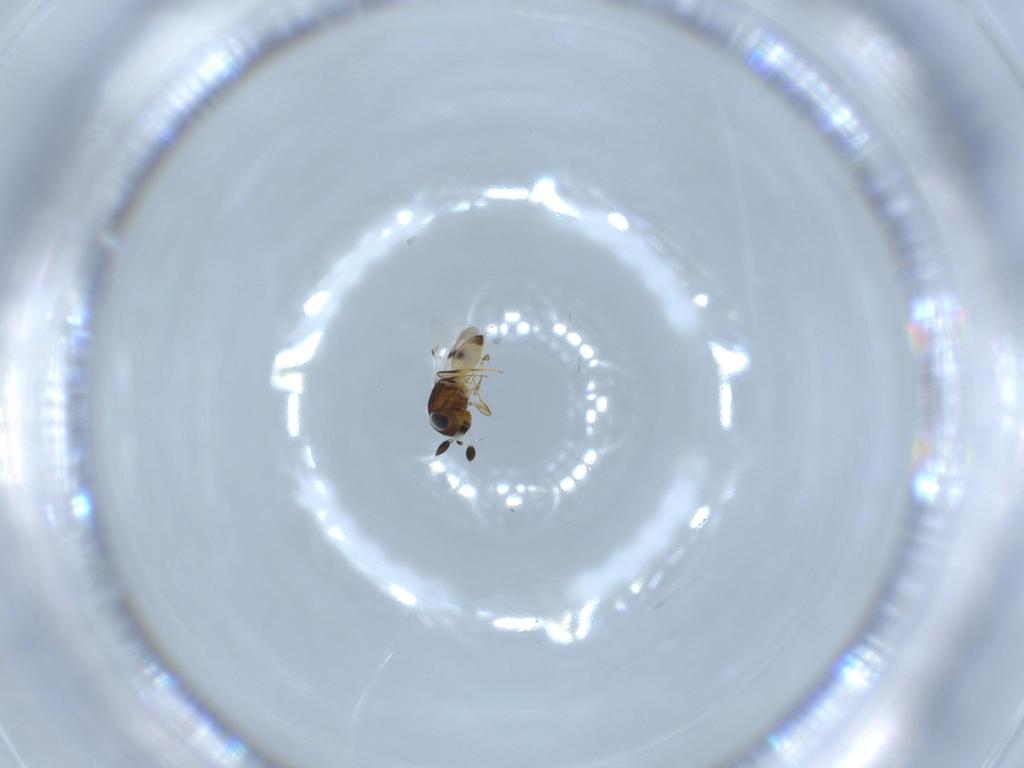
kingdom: Animalia
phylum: Arthropoda
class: Arachnida
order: Araneae
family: Pholcidae
